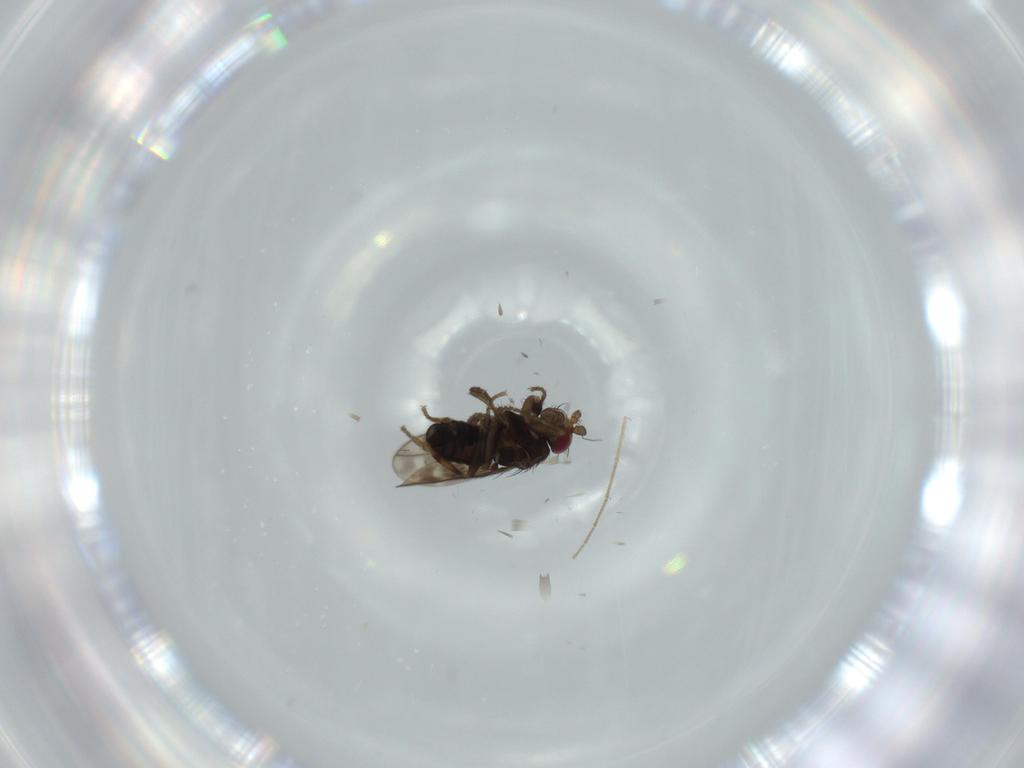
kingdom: Animalia
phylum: Arthropoda
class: Insecta
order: Diptera
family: Sphaeroceridae
